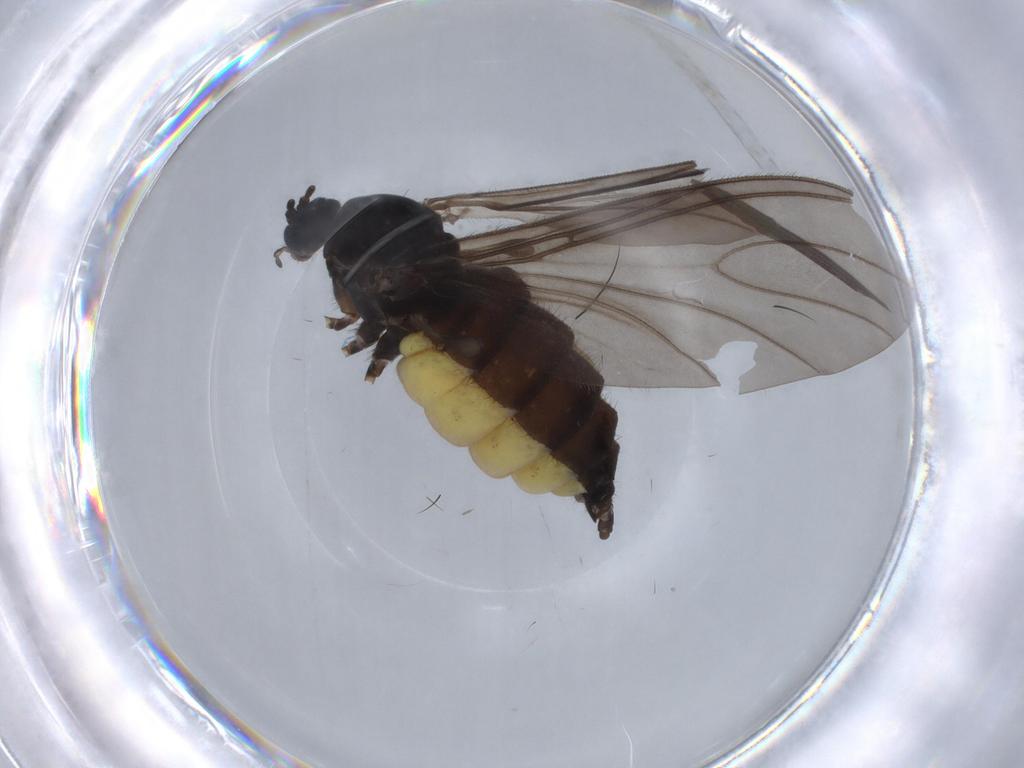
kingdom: Animalia
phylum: Arthropoda
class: Insecta
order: Diptera
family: Sciaridae
